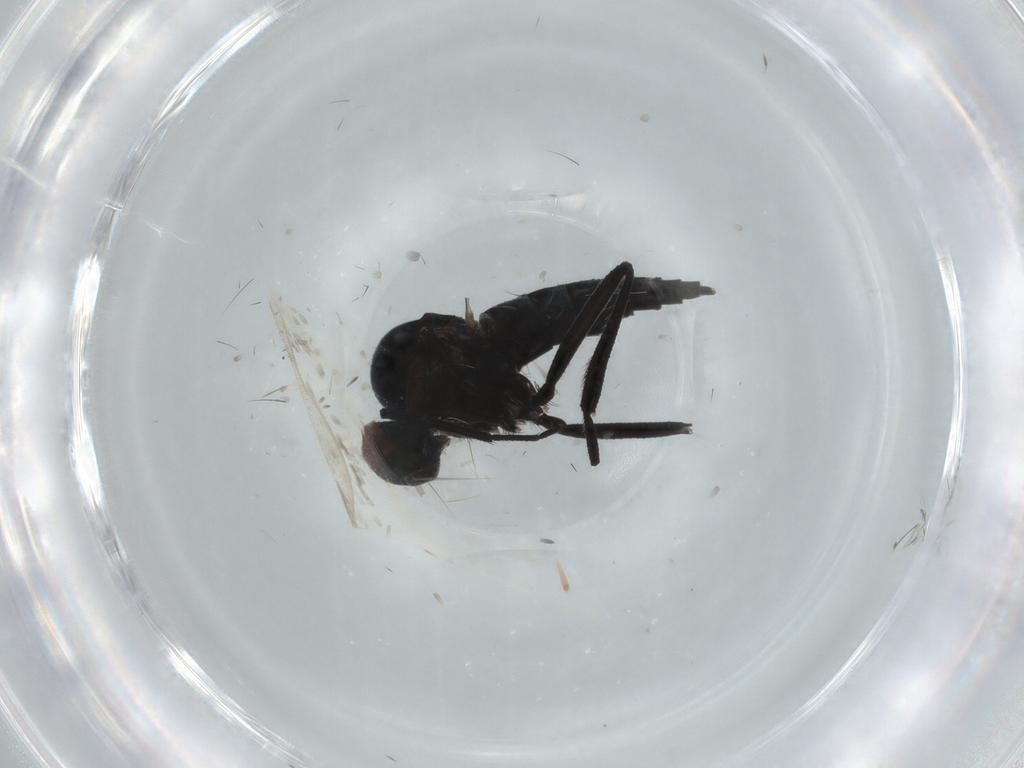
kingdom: Animalia
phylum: Arthropoda
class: Insecta
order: Diptera
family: Hybotidae
